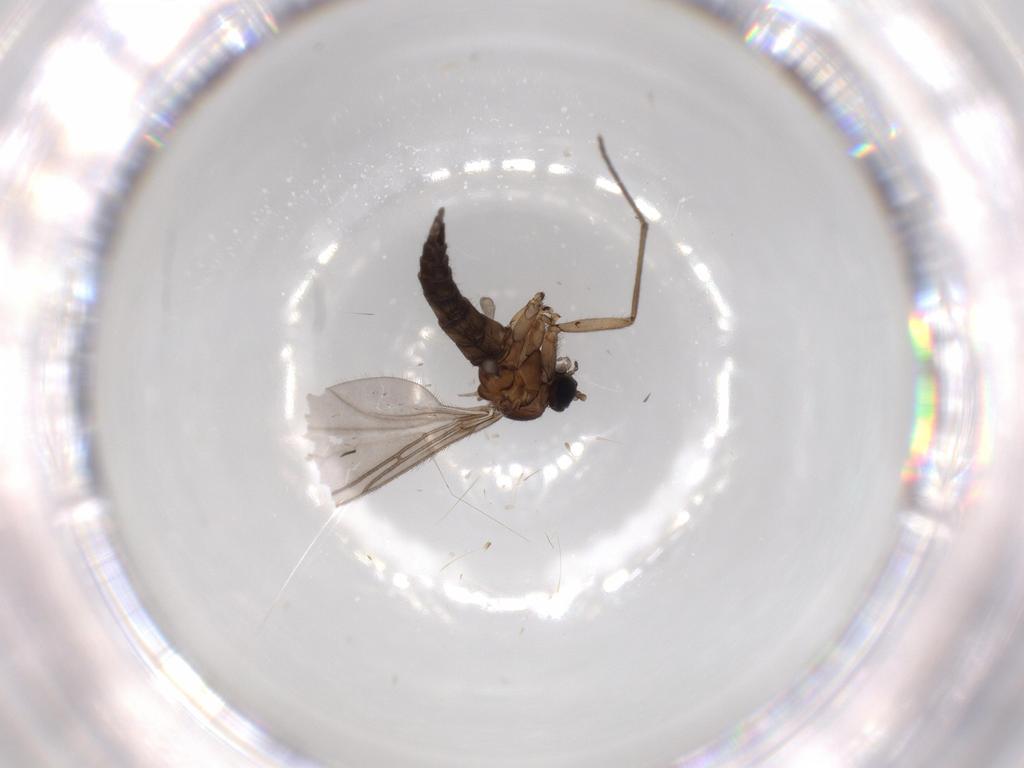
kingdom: Animalia
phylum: Arthropoda
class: Insecta
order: Diptera
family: Sciaridae
